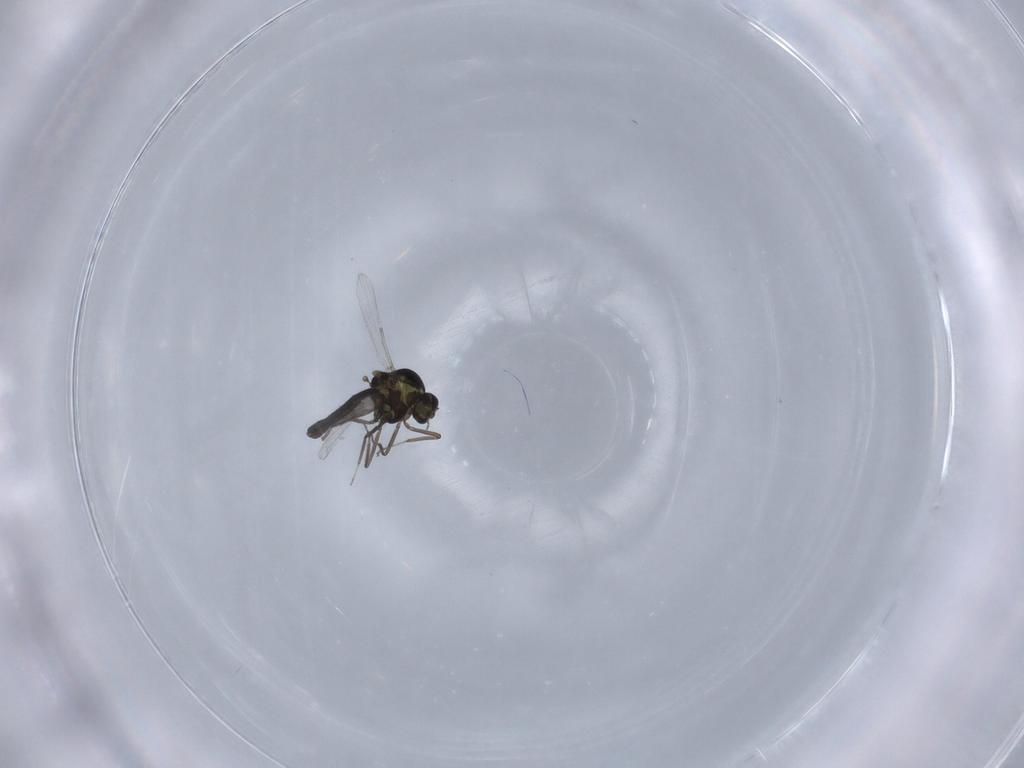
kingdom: Animalia
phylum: Arthropoda
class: Insecta
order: Diptera
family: Ceratopogonidae
